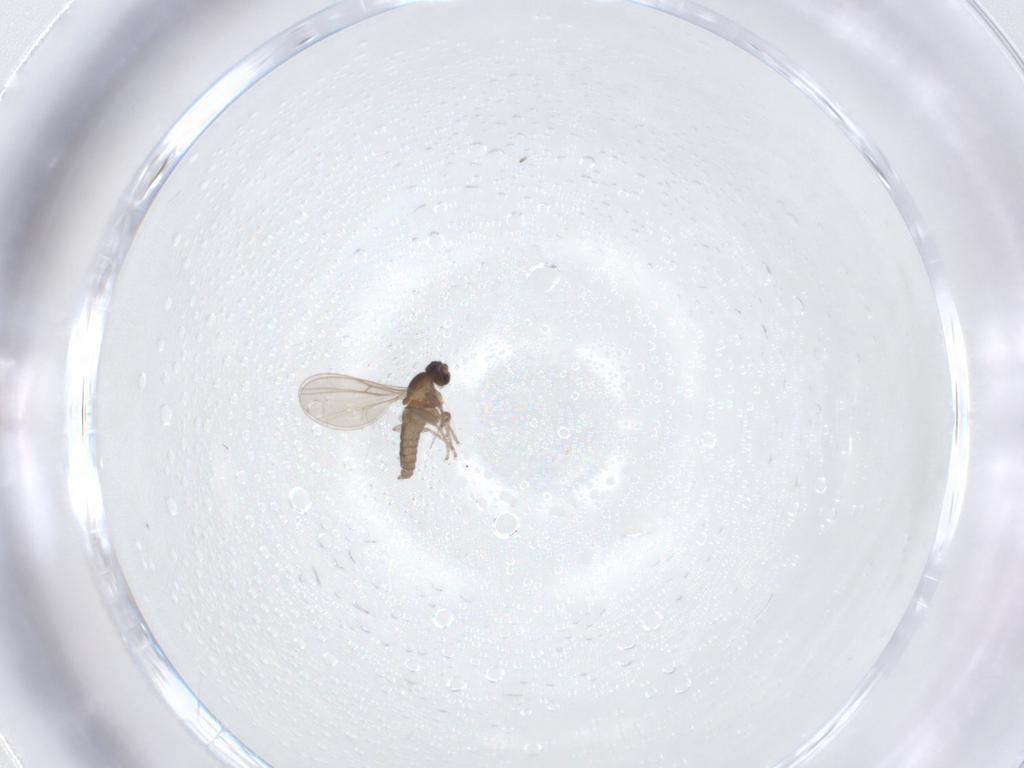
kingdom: Animalia
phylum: Arthropoda
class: Insecta
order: Diptera
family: Cecidomyiidae
